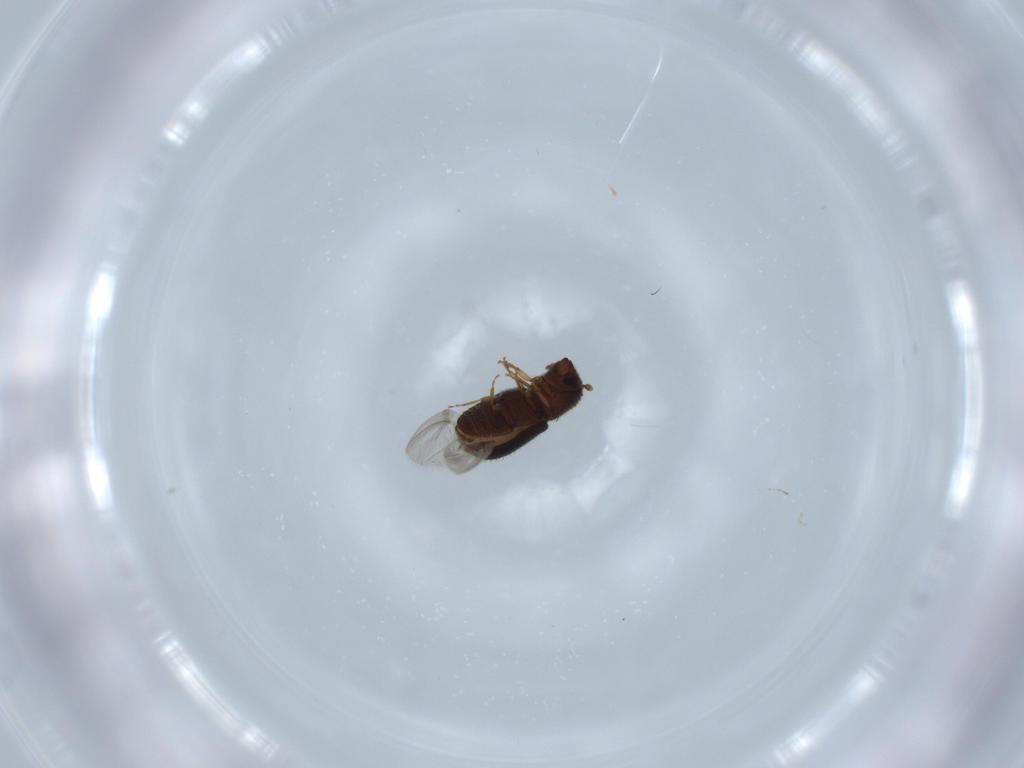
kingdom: Animalia
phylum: Arthropoda
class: Insecta
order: Coleoptera
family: Curculionidae
